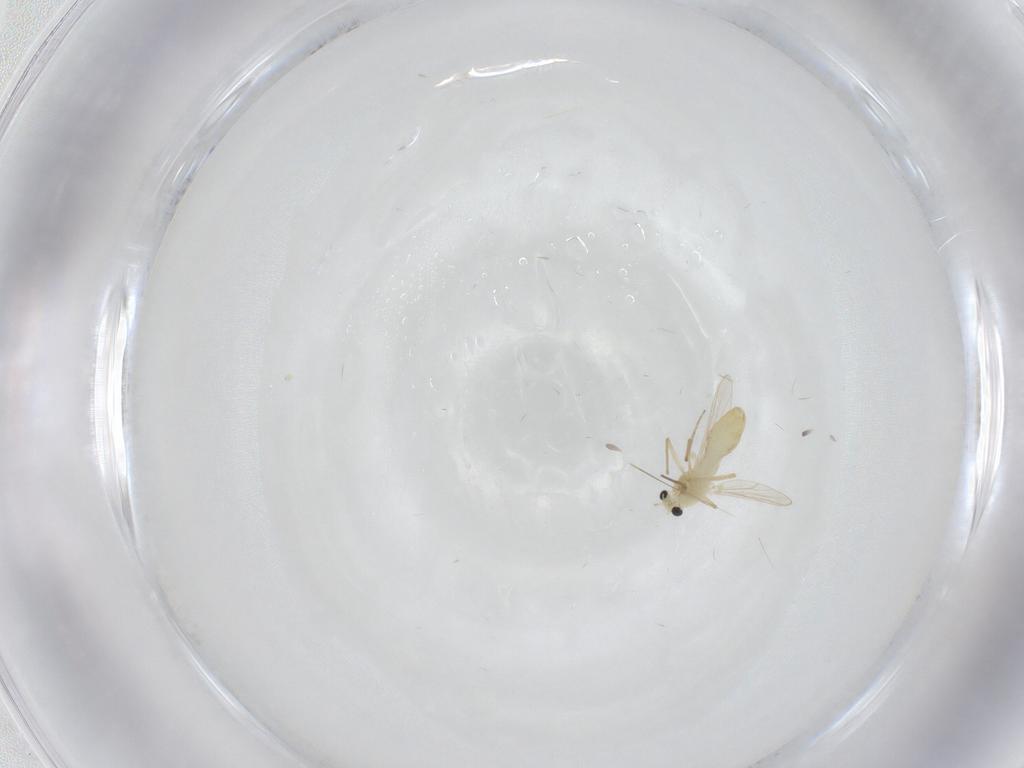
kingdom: Animalia
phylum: Arthropoda
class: Insecta
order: Diptera
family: Chironomidae
